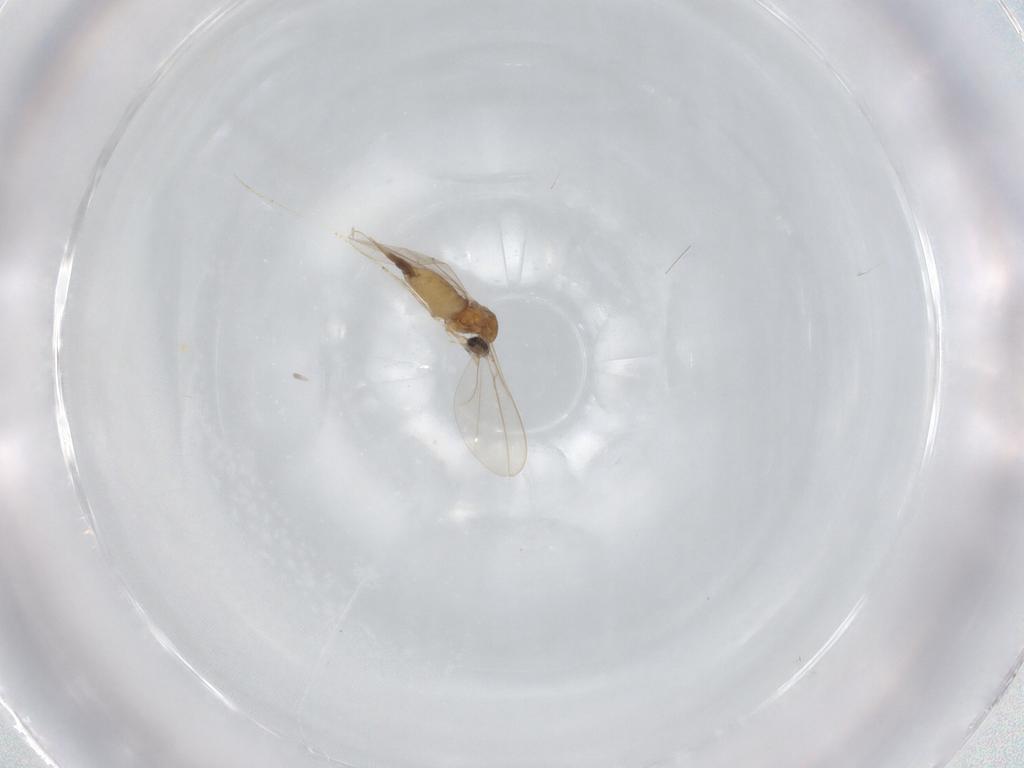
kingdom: Animalia
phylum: Arthropoda
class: Insecta
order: Diptera
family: Cecidomyiidae
